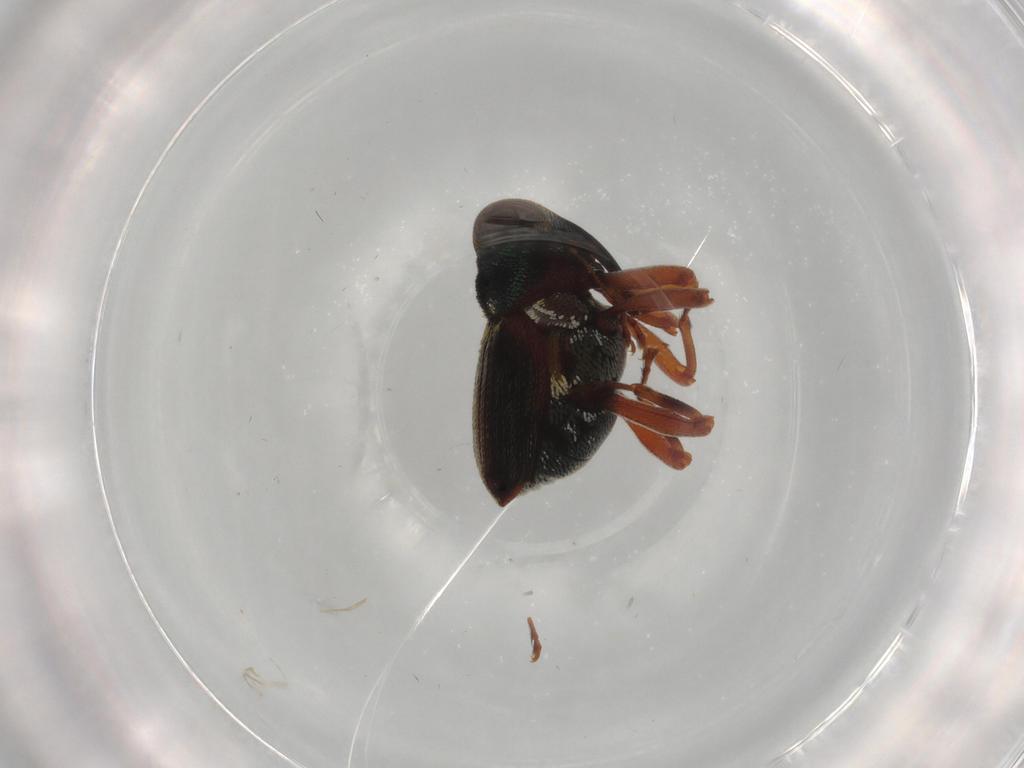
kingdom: Animalia
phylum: Arthropoda
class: Insecta
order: Coleoptera
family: Curculionidae
